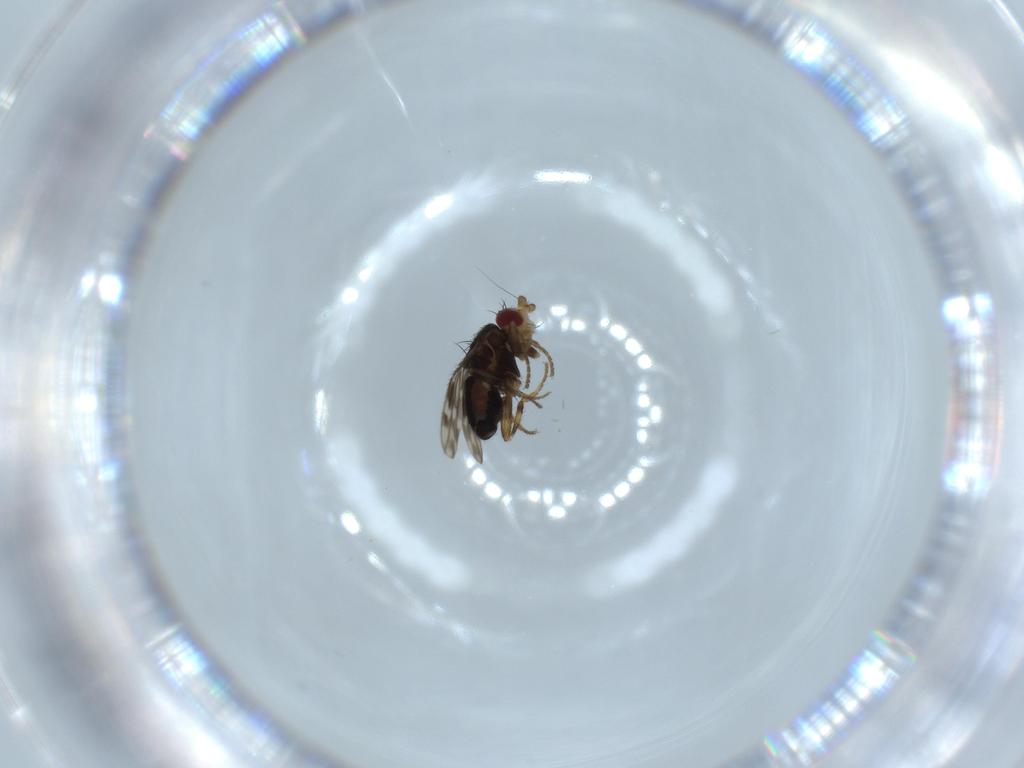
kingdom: Animalia
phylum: Arthropoda
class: Insecta
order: Diptera
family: Sphaeroceridae
